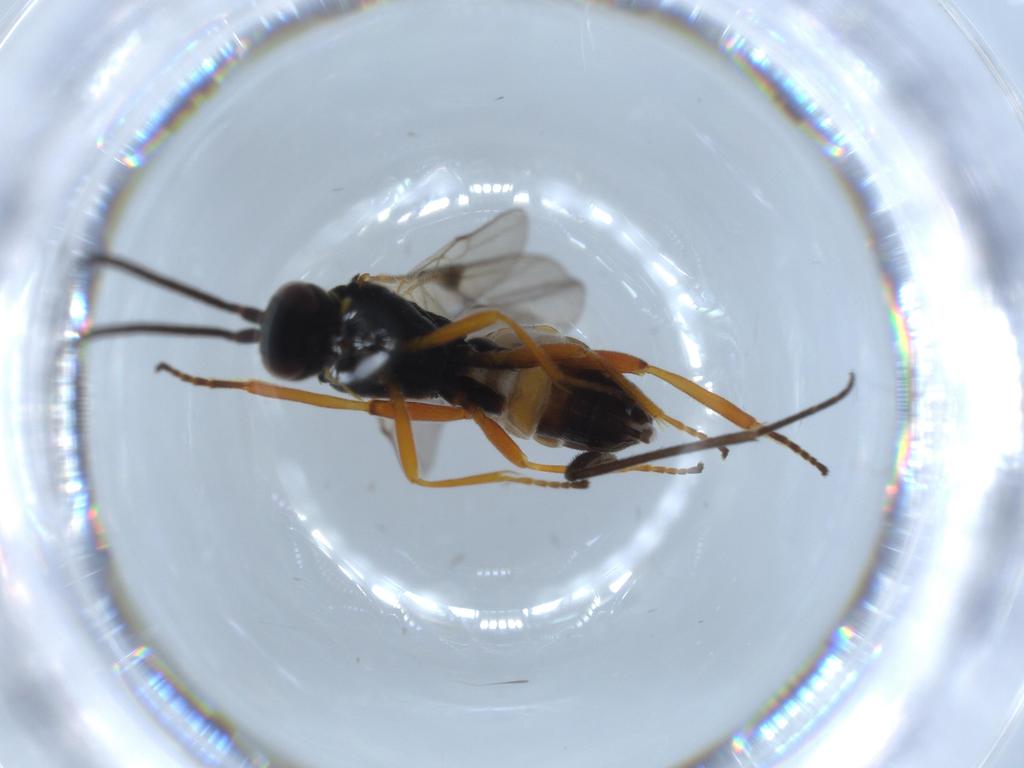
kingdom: Animalia
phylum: Arthropoda
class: Insecta
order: Hymenoptera
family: Braconidae
